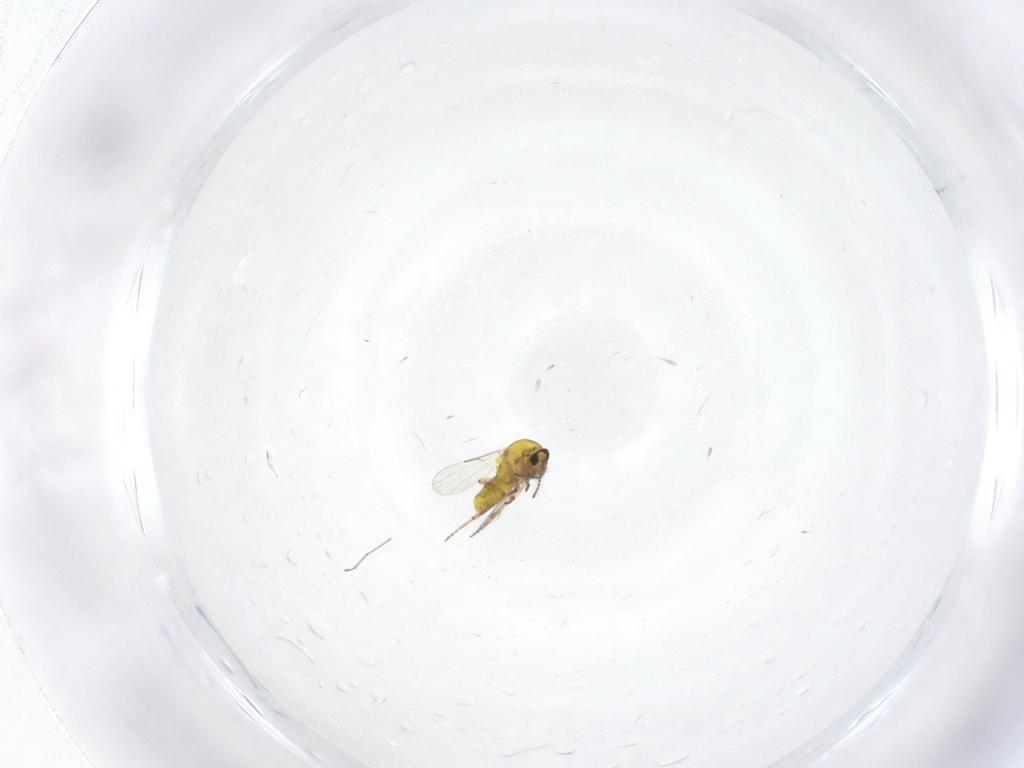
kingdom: Animalia
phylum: Arthropoda
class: Insecta
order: Diptera
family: Ceratopogonidae
